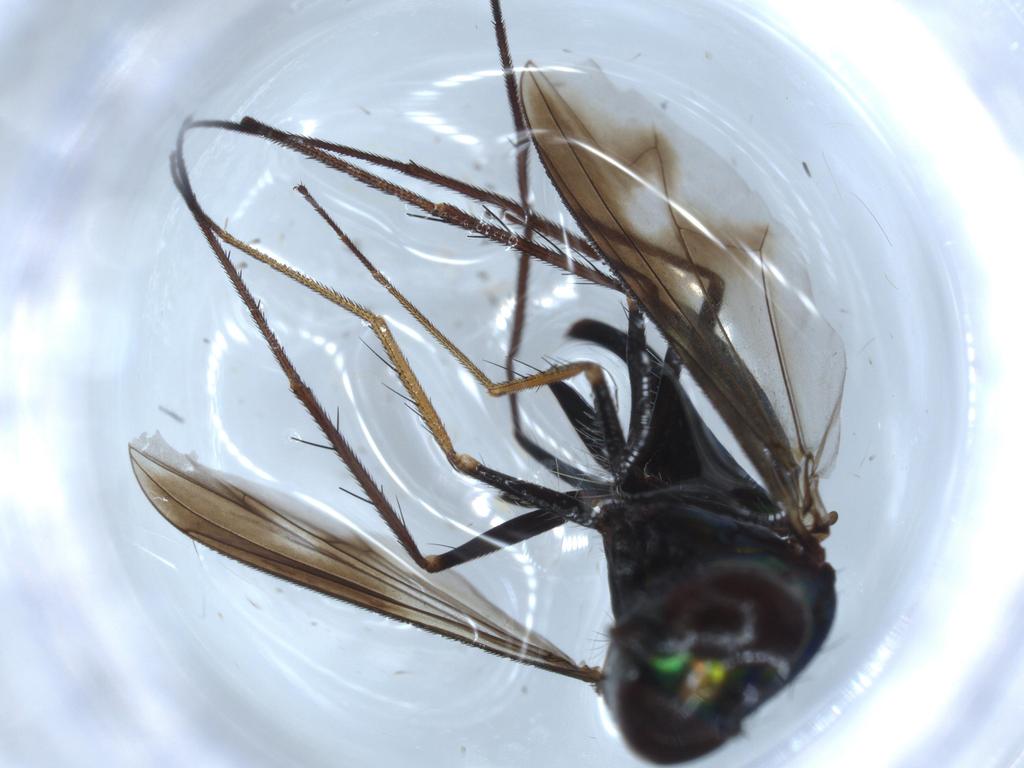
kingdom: Animalia
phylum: Arthropoda
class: Insecta
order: Diptera
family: Dolichopodidae
